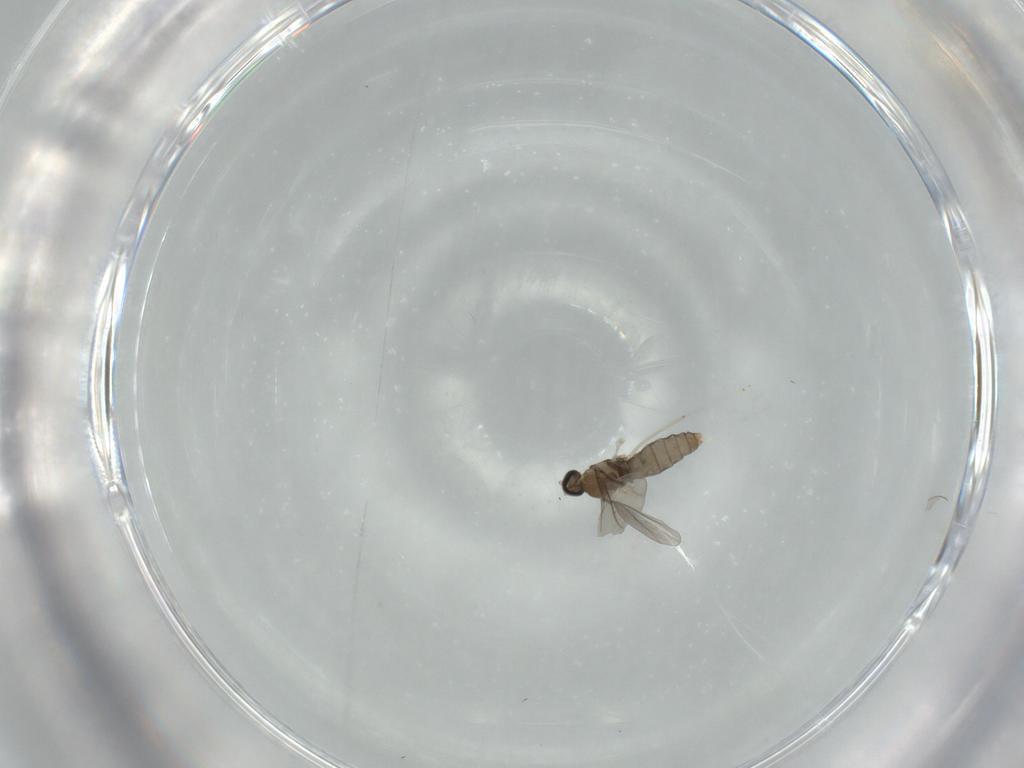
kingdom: Animalia
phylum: Arthropoda
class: Insecta
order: Diptera
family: Cecidomyiidae
